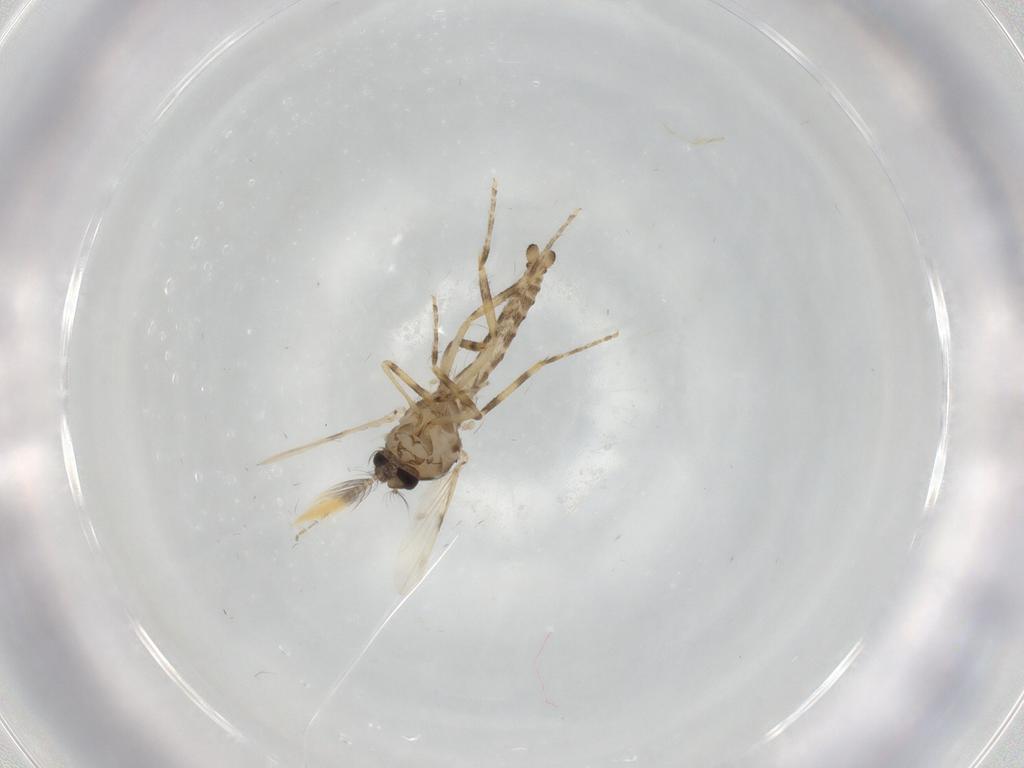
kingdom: Animalia
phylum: Arthropoda
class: Insecta
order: Diptera
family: Ceratopogonidae
